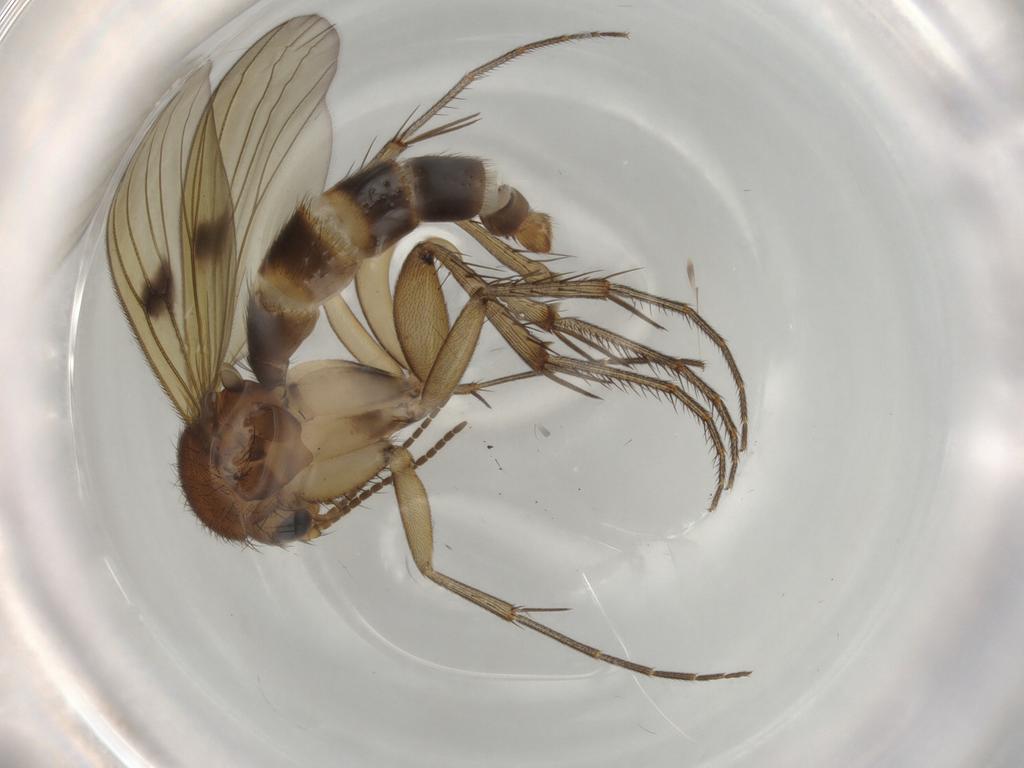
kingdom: Animalia
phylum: Arthropoda
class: Insecta
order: Diptera
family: Mycetophilidae
